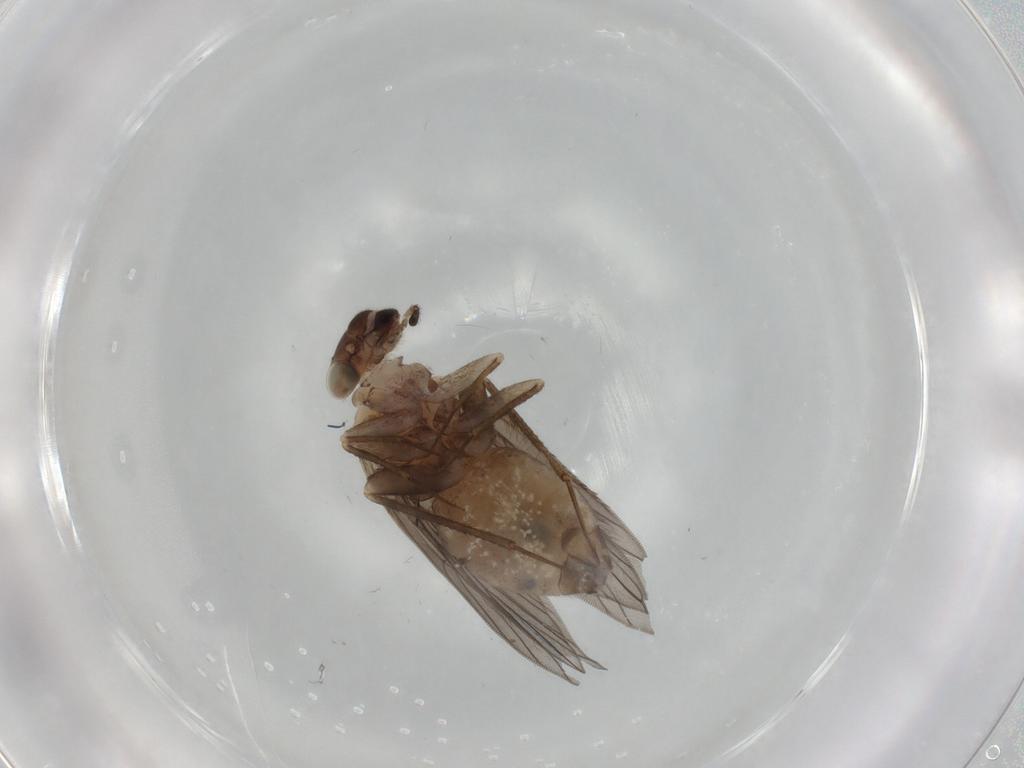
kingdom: Animalia
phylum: Arthropoda
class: Insecta
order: Psocodea
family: Lepidopsocidae
